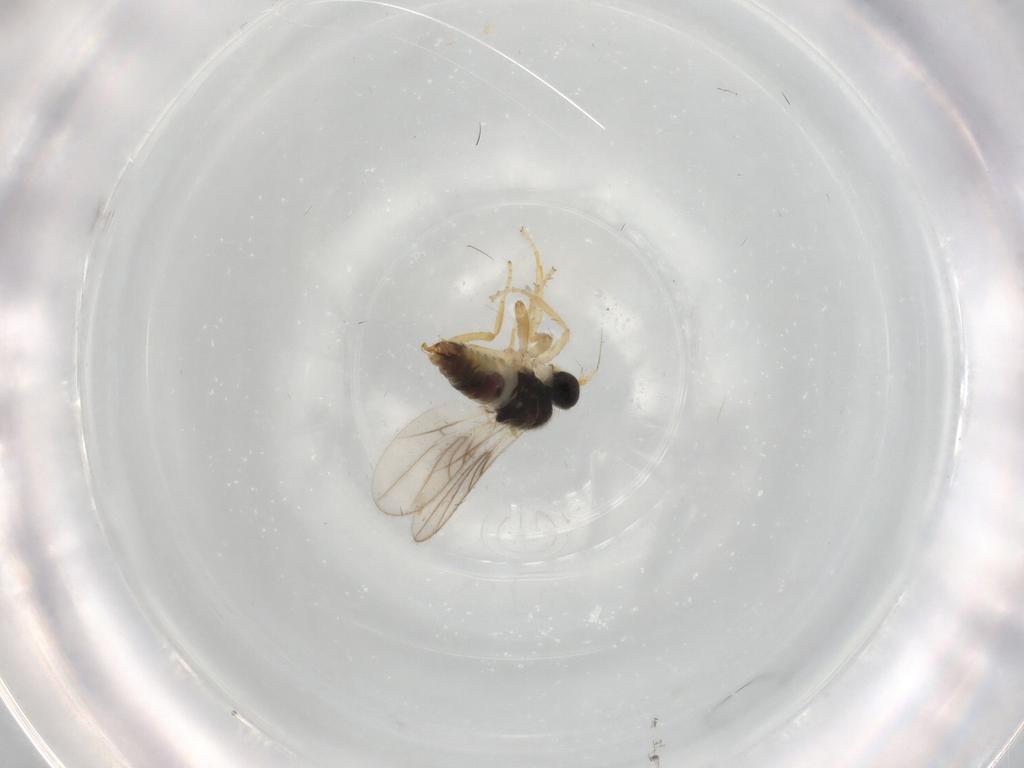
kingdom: Animalia
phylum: Arthropoda
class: Insecta
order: Diptera
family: Hybotidae
